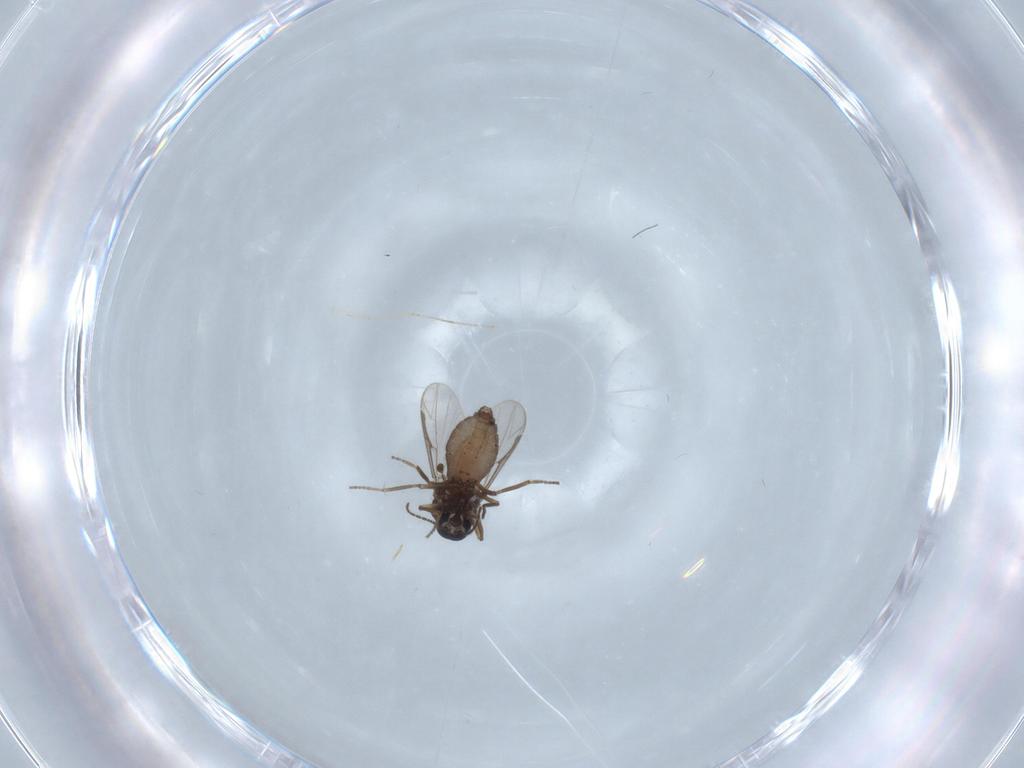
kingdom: Animalia
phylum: Arthropoda
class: Insecta
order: Diptera
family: Ceratopogonidae
